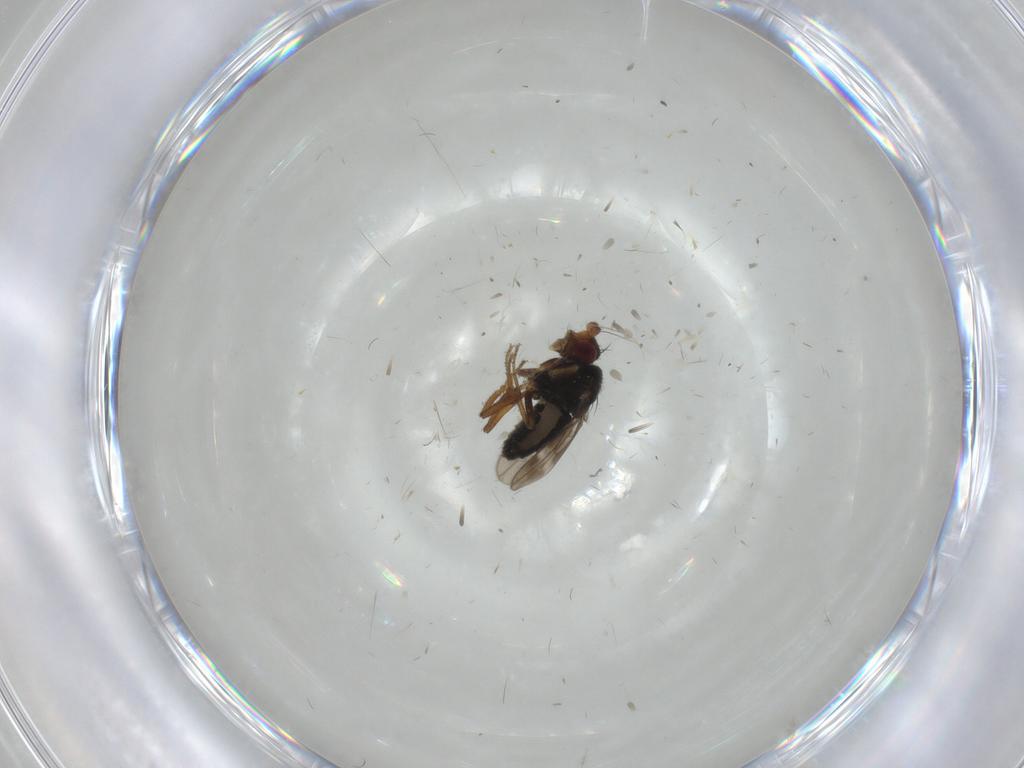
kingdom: Animalia
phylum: Arthropoda
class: Insecta
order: Diptera
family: Sphaeroceridae
